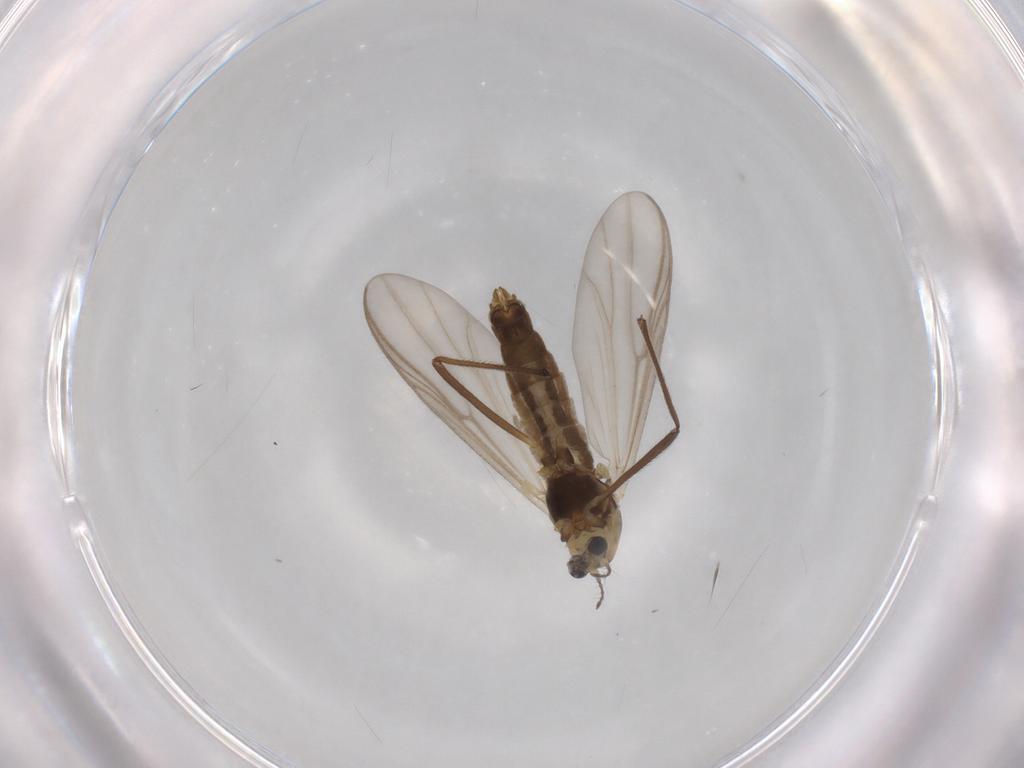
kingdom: Animalia
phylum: Arthropoda
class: Insecta
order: Diptera
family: Chironomidae
